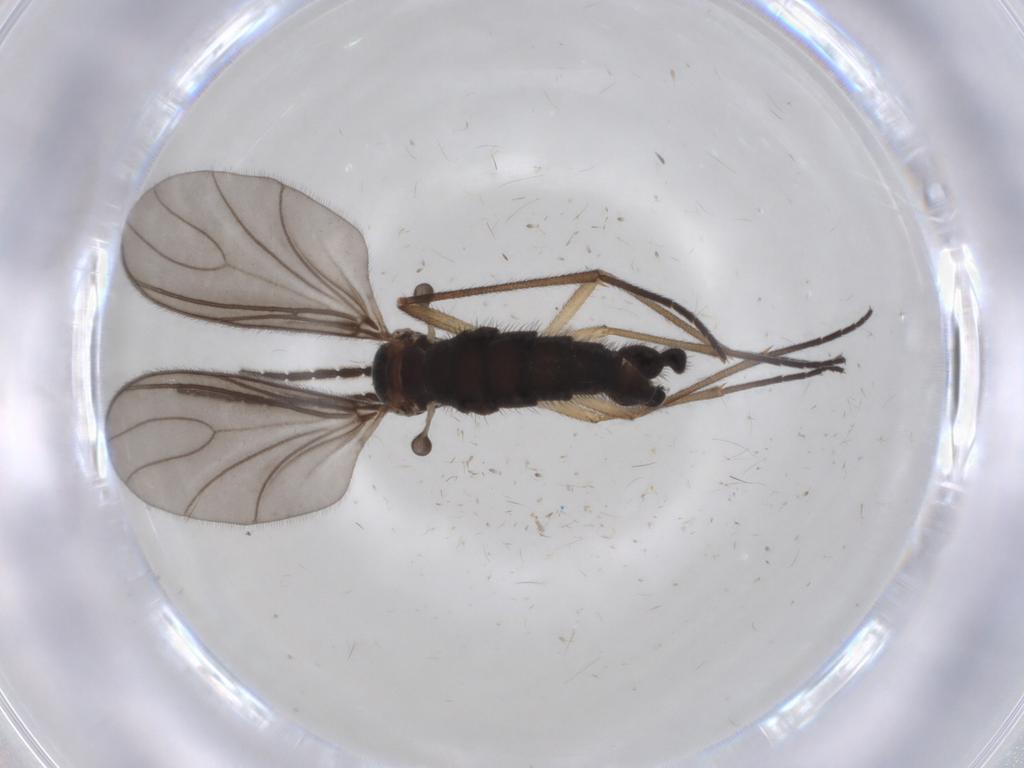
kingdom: Animalia
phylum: Arthropoda
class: Insecta
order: Diptera
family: Sciaridae
